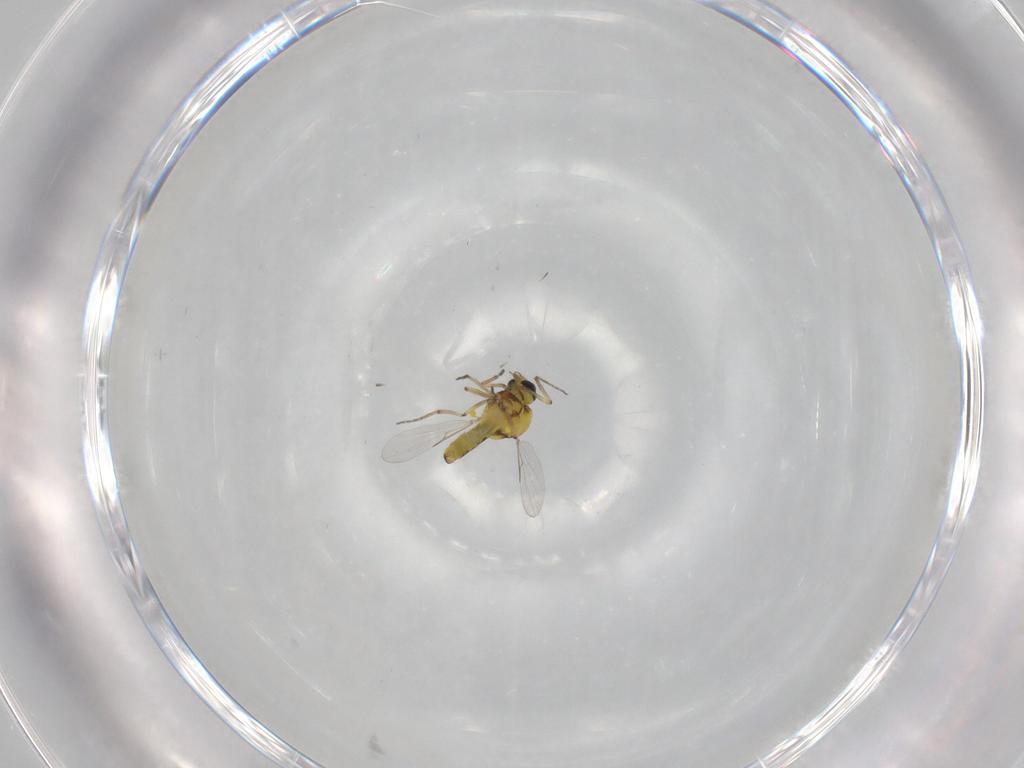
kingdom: Animalia
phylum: Arthropoda
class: Insecta
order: Diptera
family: Ceratopogonidae
